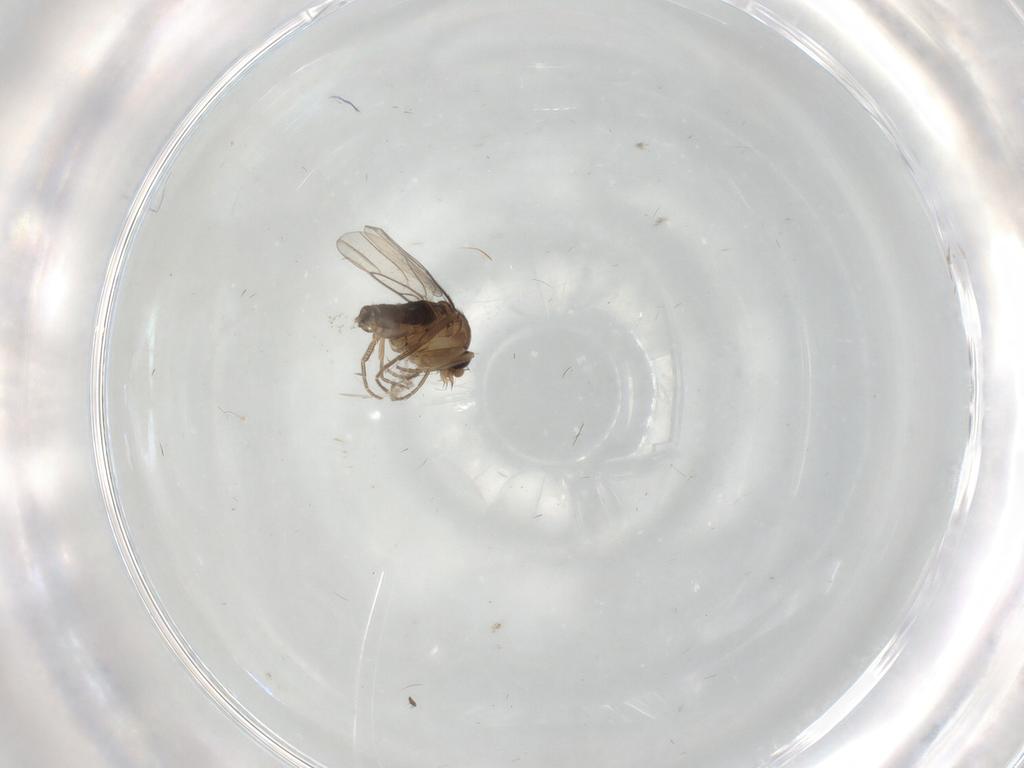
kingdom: Animalia
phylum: Arthropoda
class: Insecta
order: Diptera
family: Phoridae
